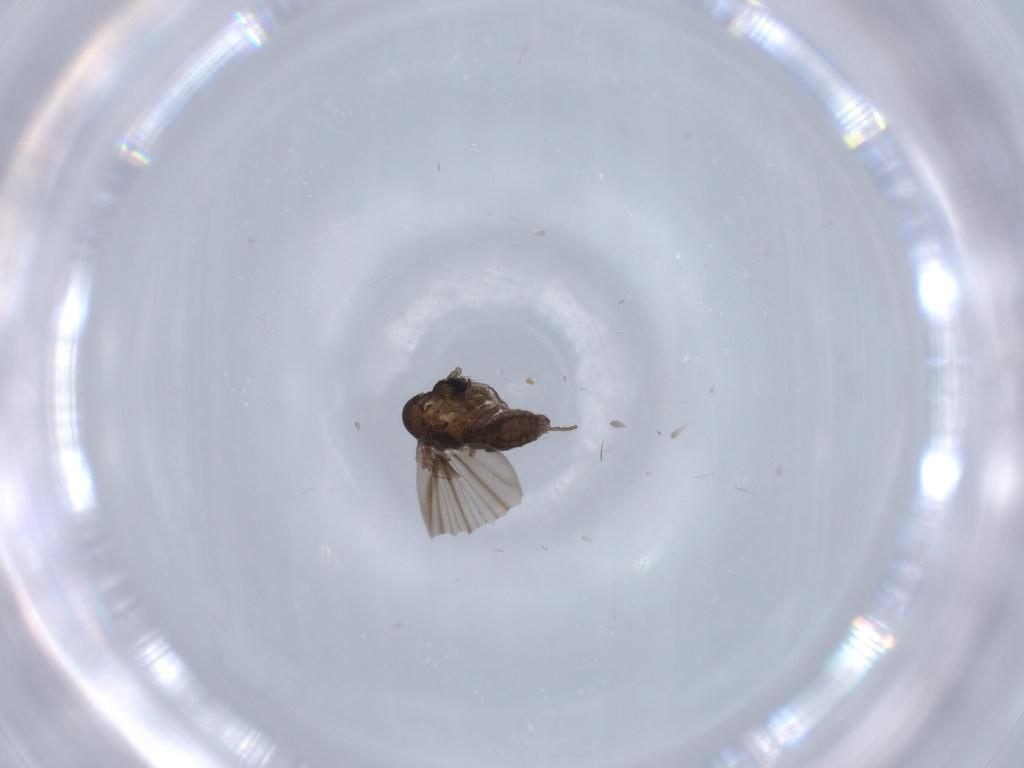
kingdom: Animalia
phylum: Arthropoda
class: Insecta
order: Diptera
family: Psychodidae
